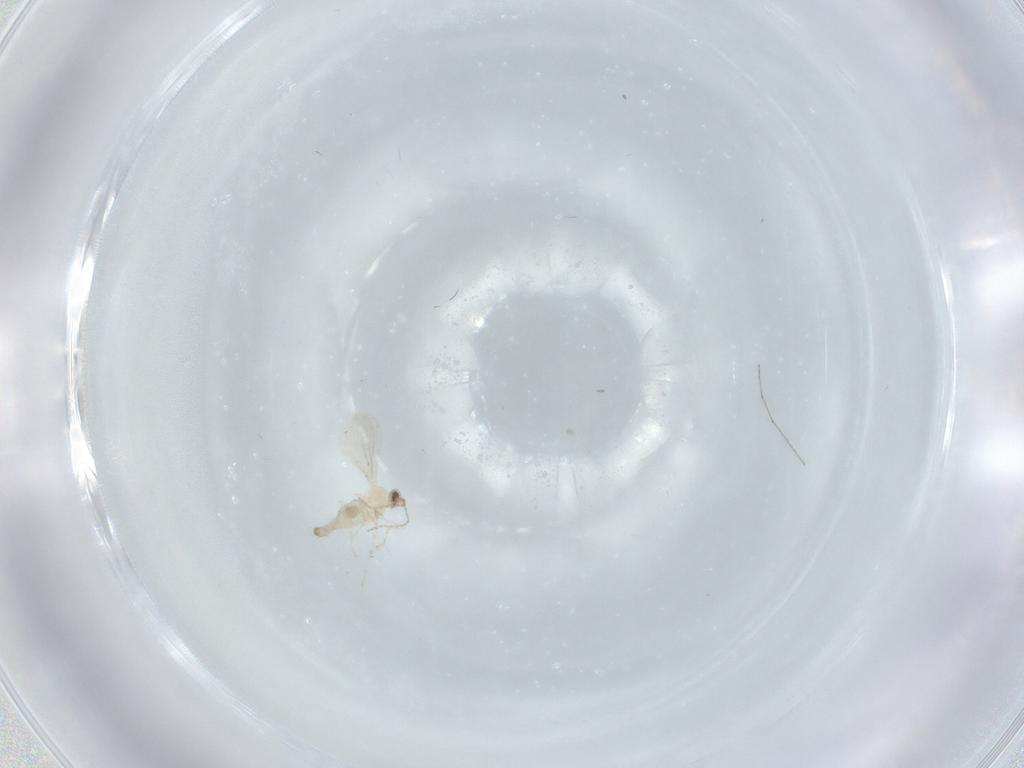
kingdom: Animalia
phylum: Arthropoda
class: Insecta
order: Diptera
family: Cecidomyiidae
